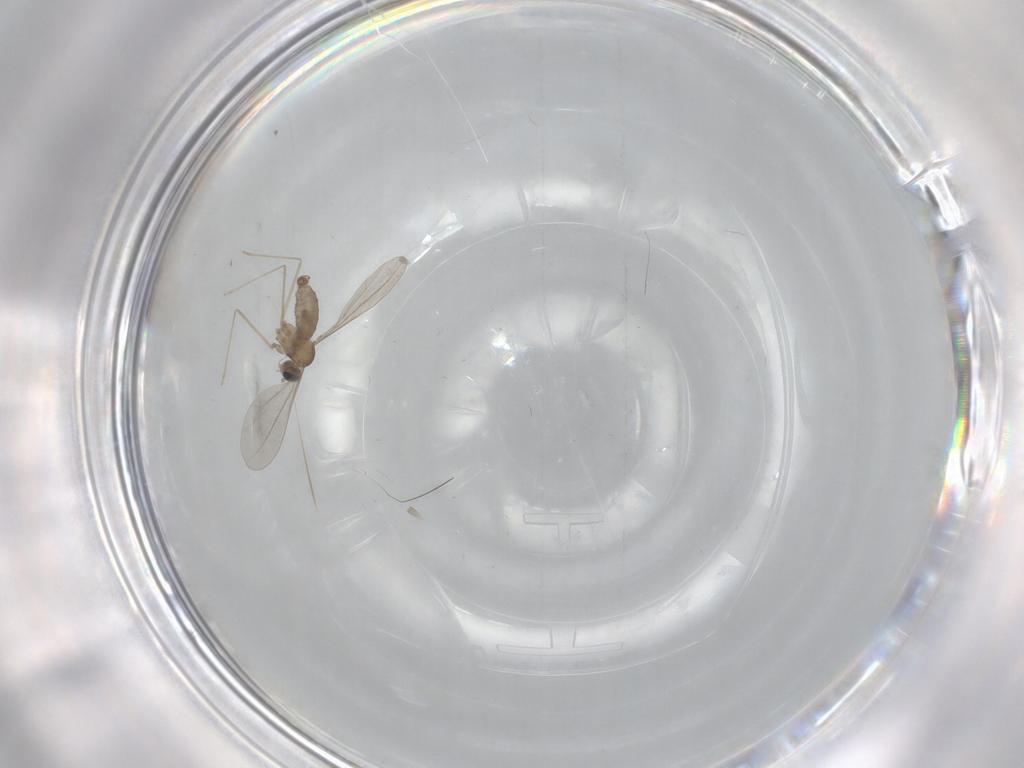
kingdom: Animalia
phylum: Arthropoda
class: Insecta
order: Diptera
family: Cecidomyiidae
